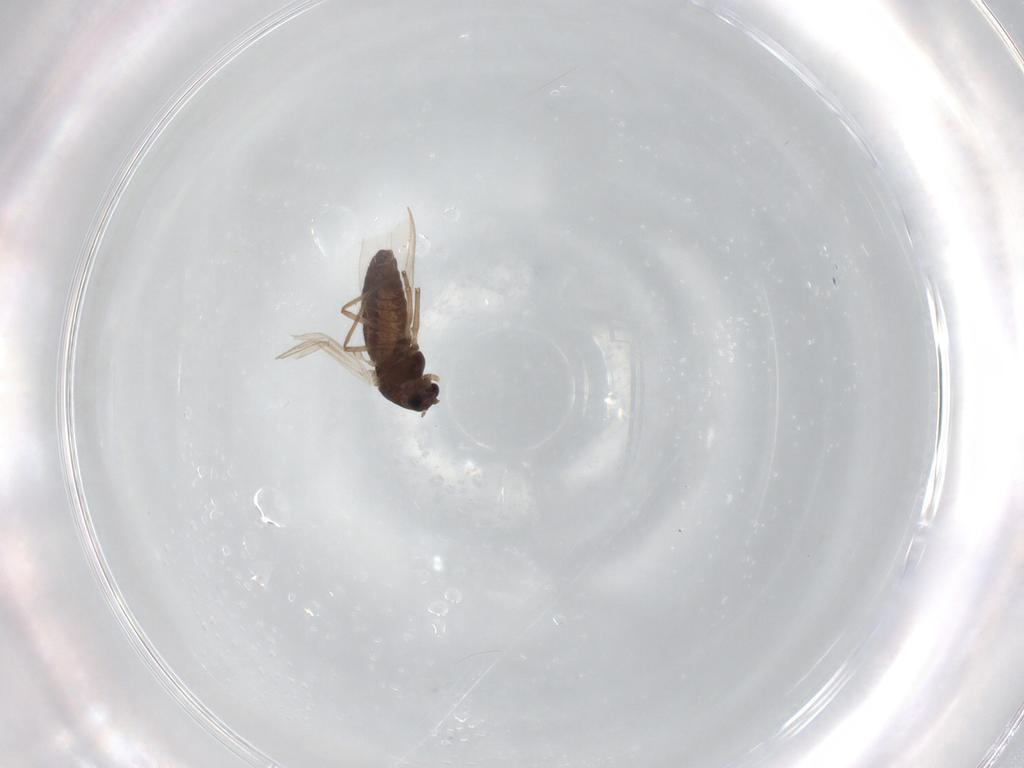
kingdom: Animalia
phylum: Arthropoda
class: Insecta
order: Diptera
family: Chironomidae
